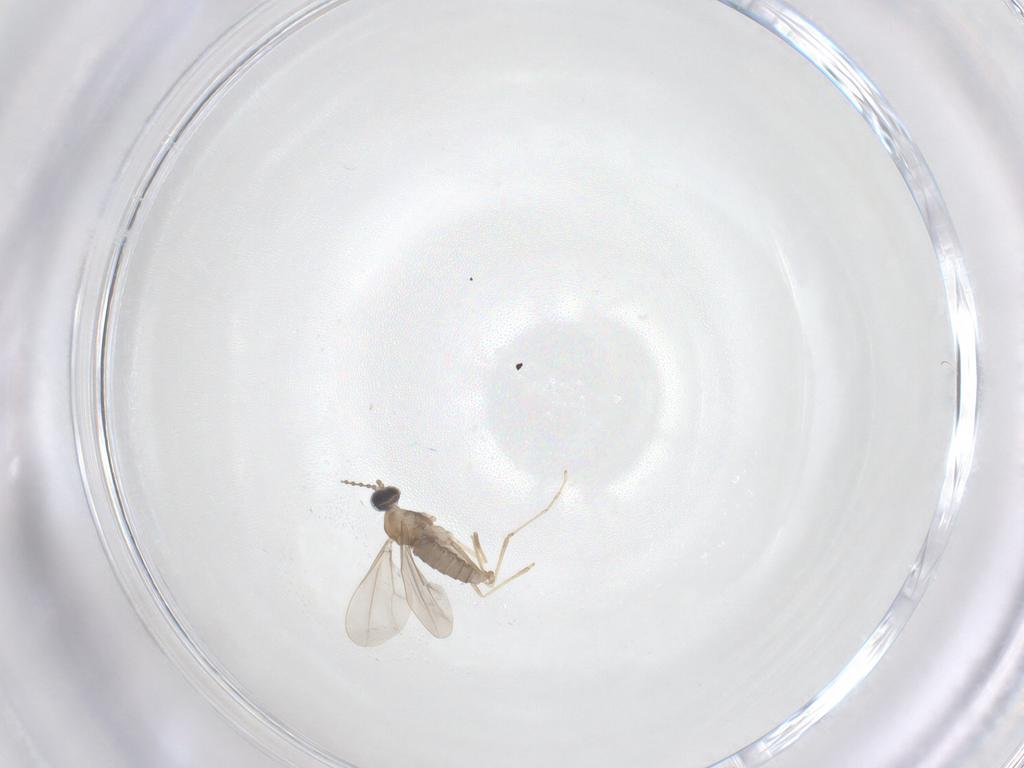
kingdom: Animalia
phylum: Arthropoda
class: Insecta
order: Diptera
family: Cecidomyiidae
